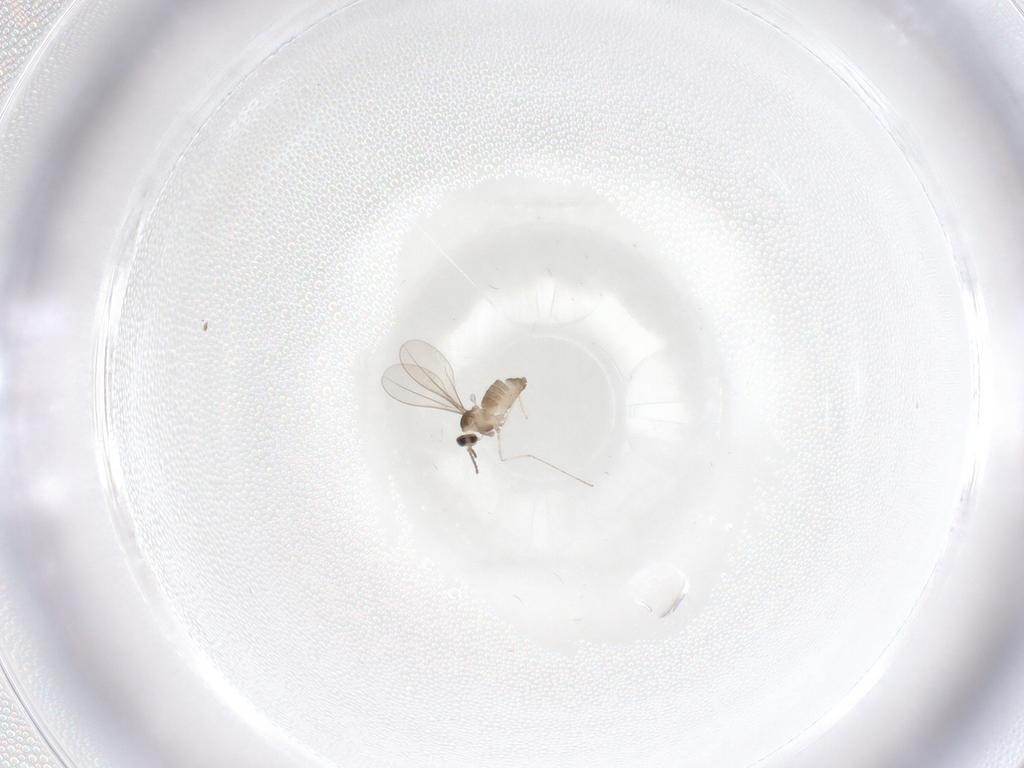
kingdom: Animalia
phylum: Arthropoda
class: Insecta
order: Diptera
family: Cecidomyiidae
